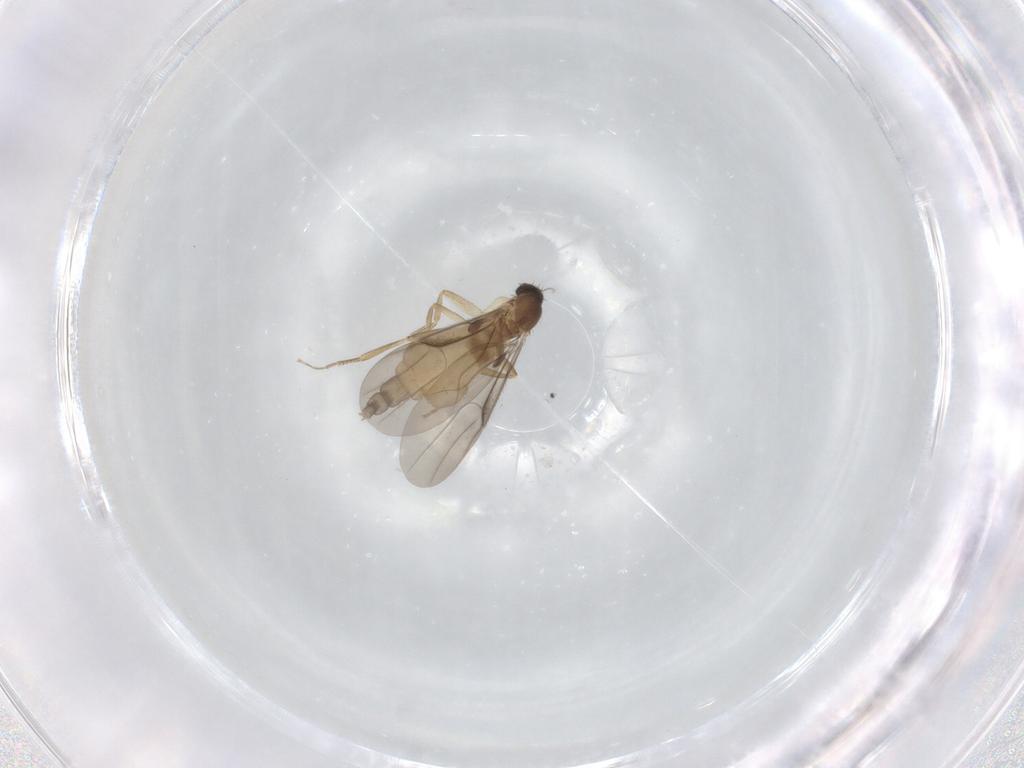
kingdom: Animalia
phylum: Arthropoda
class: Insecta
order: Diptera
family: Phoridae
